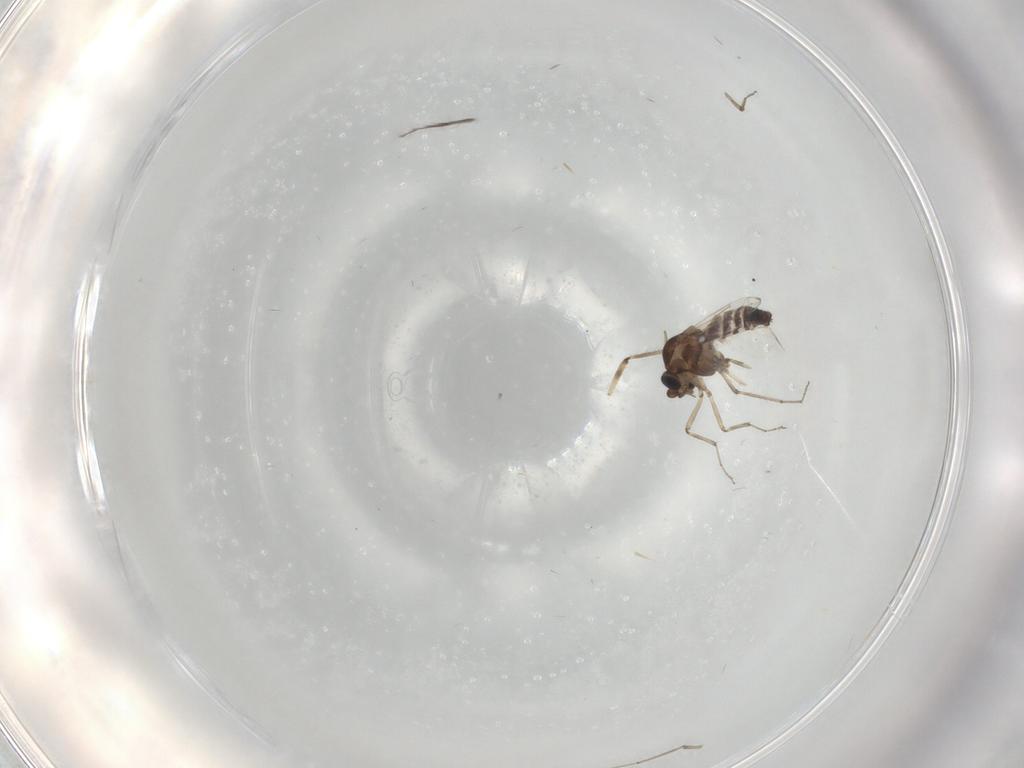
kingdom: Animalia
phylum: Arthropoda
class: Insecta
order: Diptera
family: Ceratopogonidae
